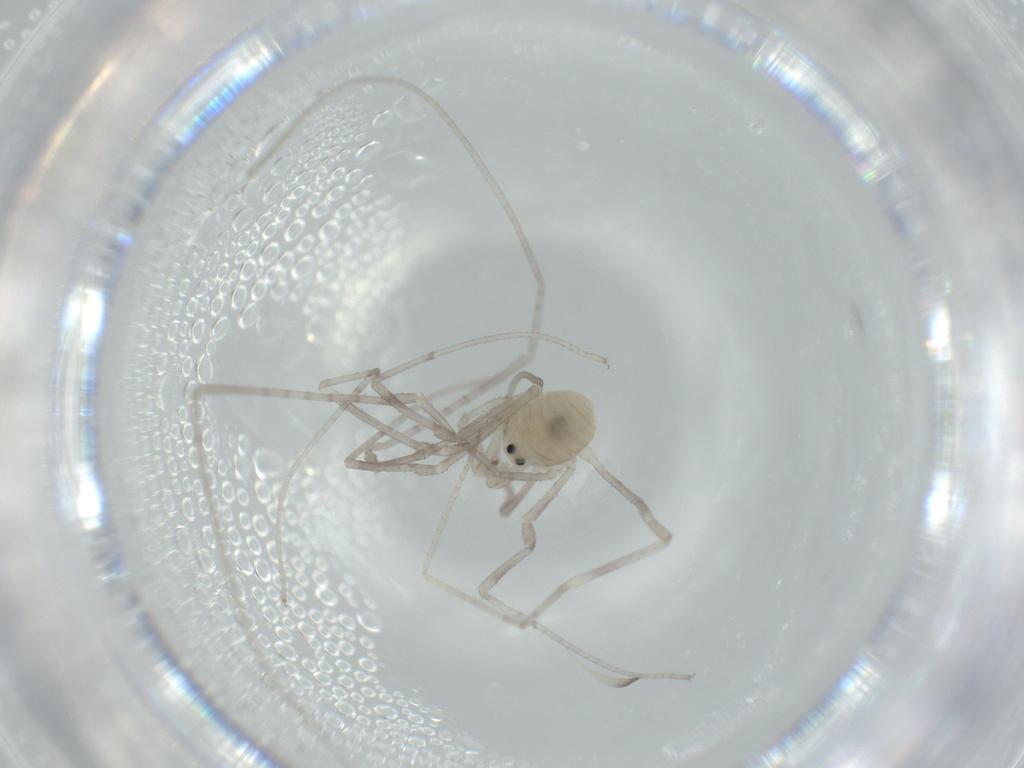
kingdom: Animalia
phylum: Arthropoda
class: Arachnida
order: Opiliones
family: Sclerosomatidae
